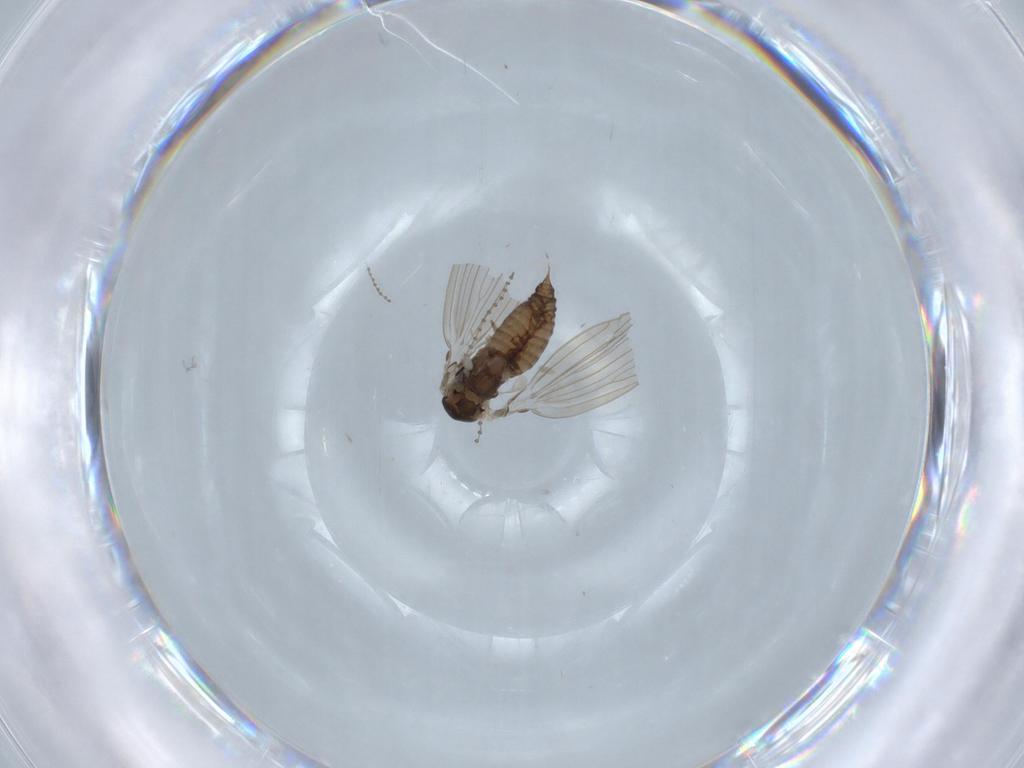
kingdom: Animalia
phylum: Arthropoda
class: Insecta
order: Diptera
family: Psychodidae
